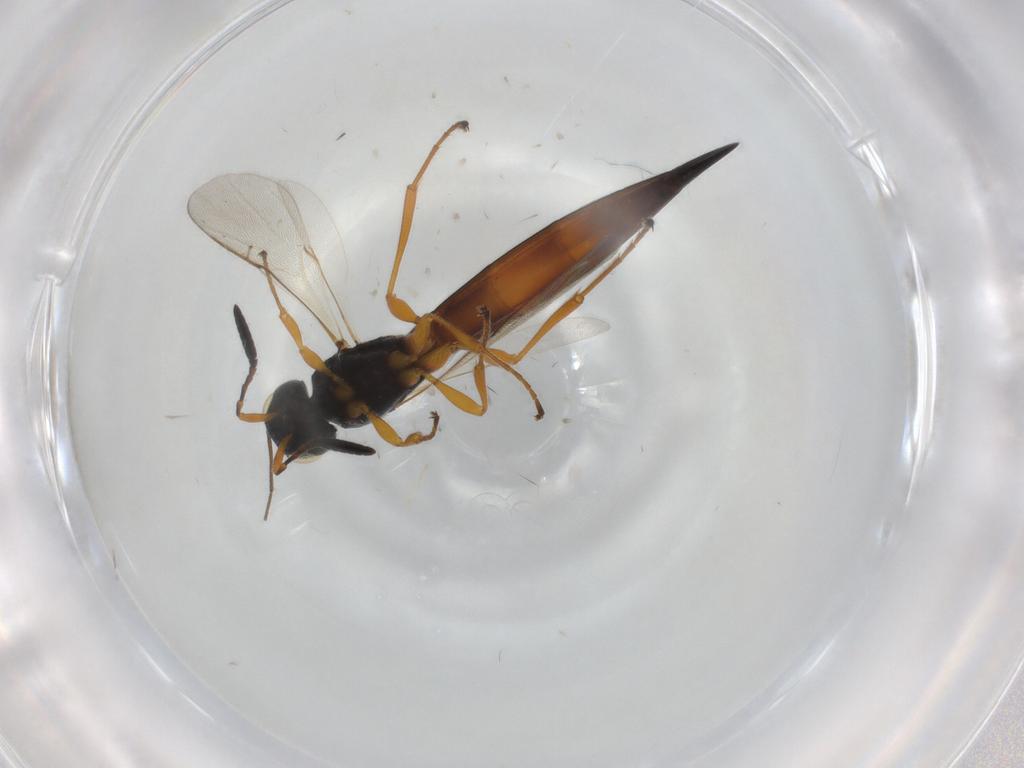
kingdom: Animalia
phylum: Arthropoda
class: Insecta
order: Hymenoptera
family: Scelionidae
